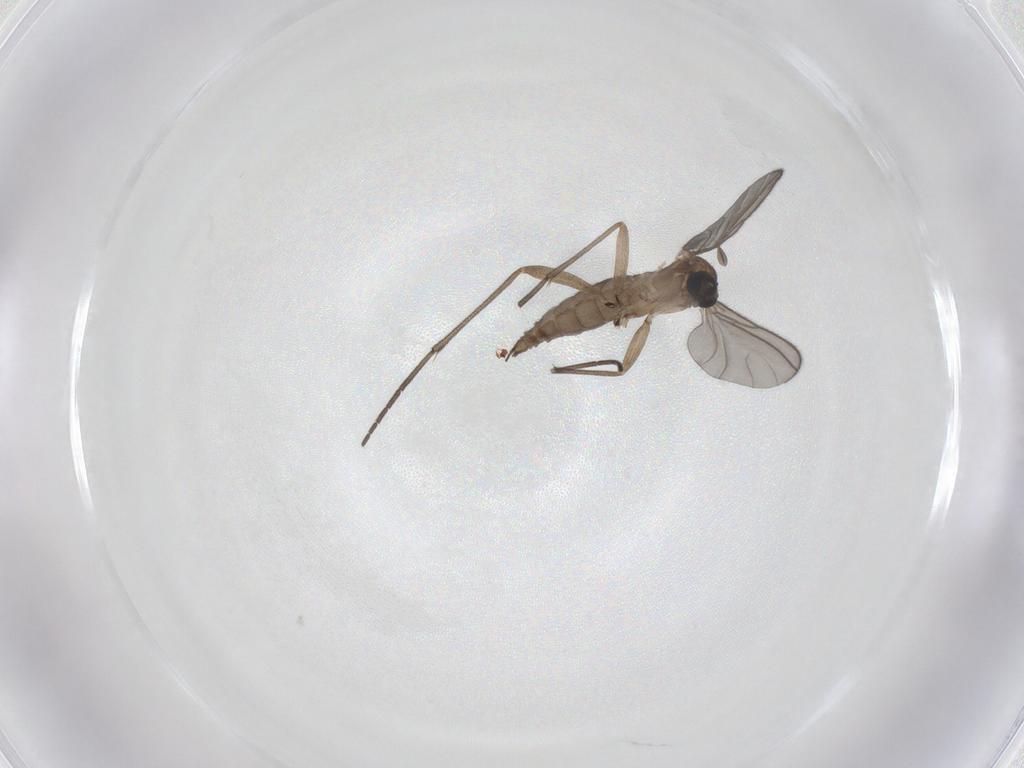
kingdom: Animalia
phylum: Arthropoda
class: Insecta
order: Diptera
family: Sciaridae
